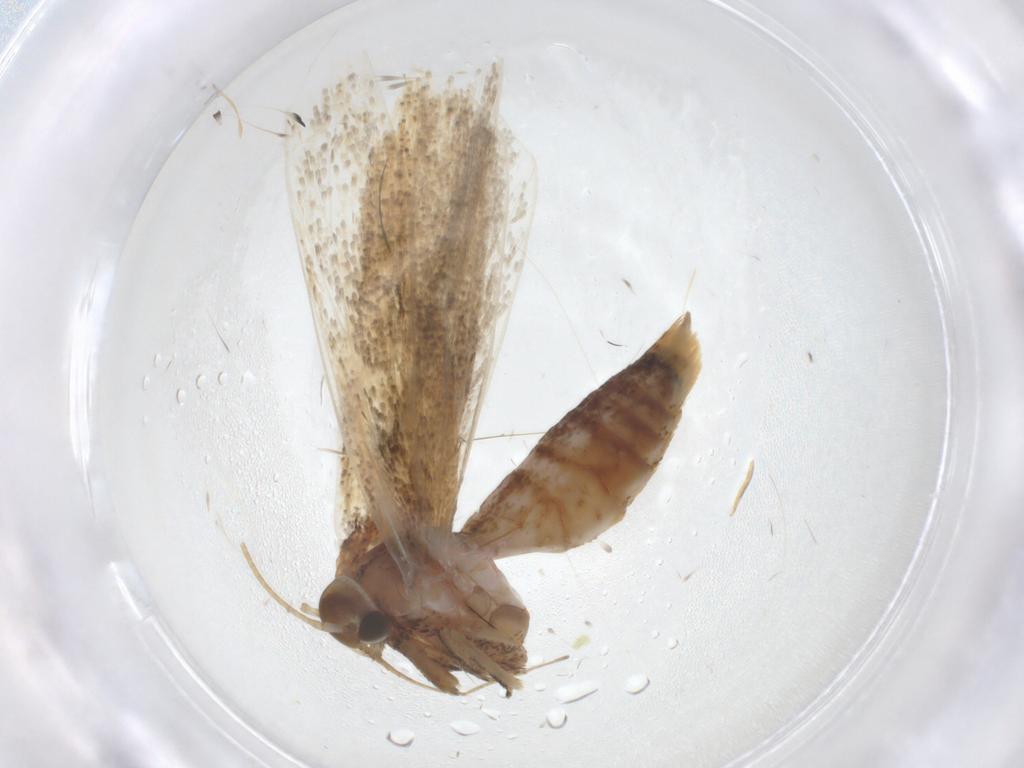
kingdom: Animalia
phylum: Arthropoda
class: Insecta
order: Lepidoptera
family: Crambidae
